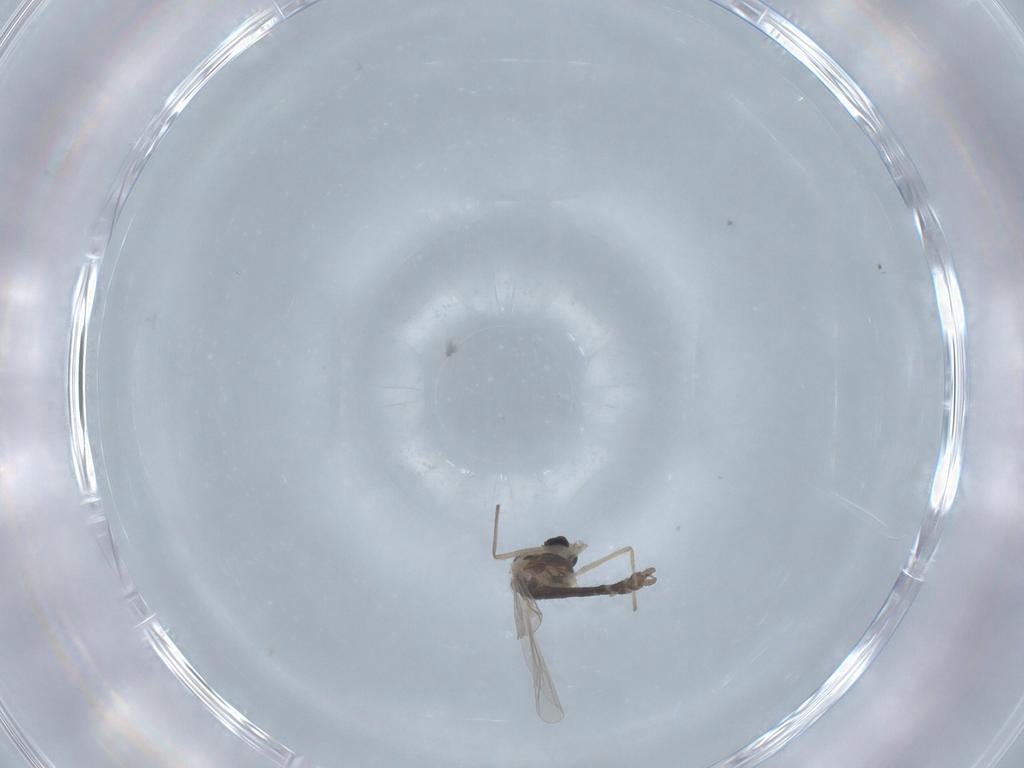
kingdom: Animalia
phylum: Arthropoda
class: Insecta
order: Diptera
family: Chironomidae
